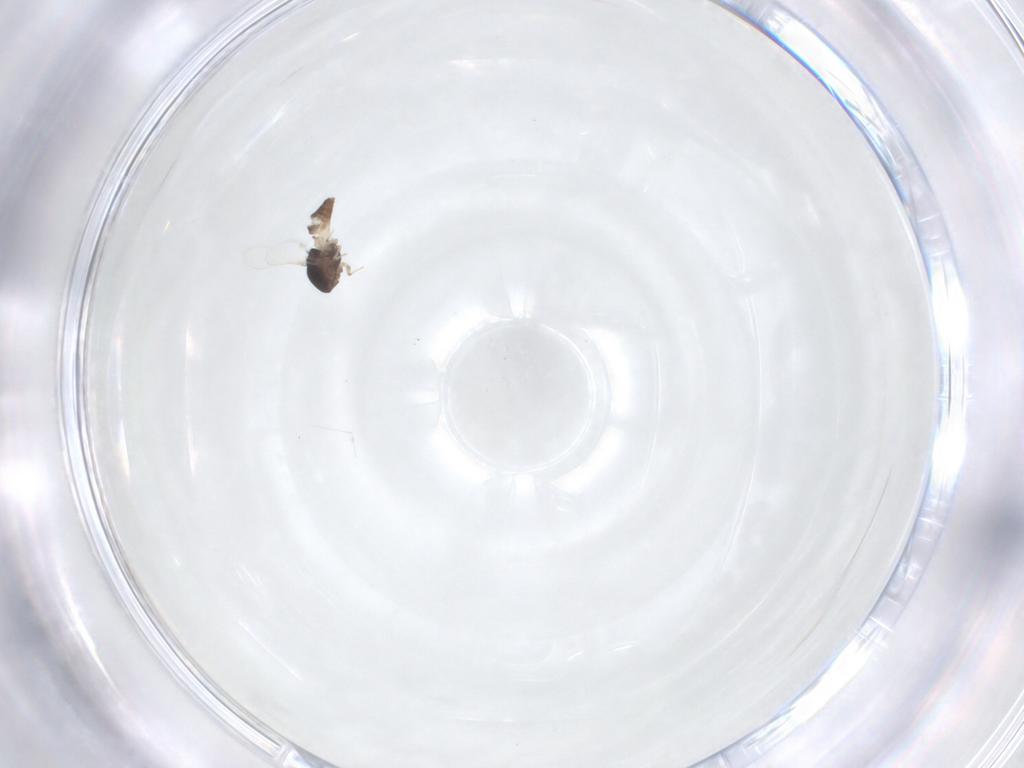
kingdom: Animalia
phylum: Arthropoda
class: Insecta
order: Diptera
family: Chironomidae
